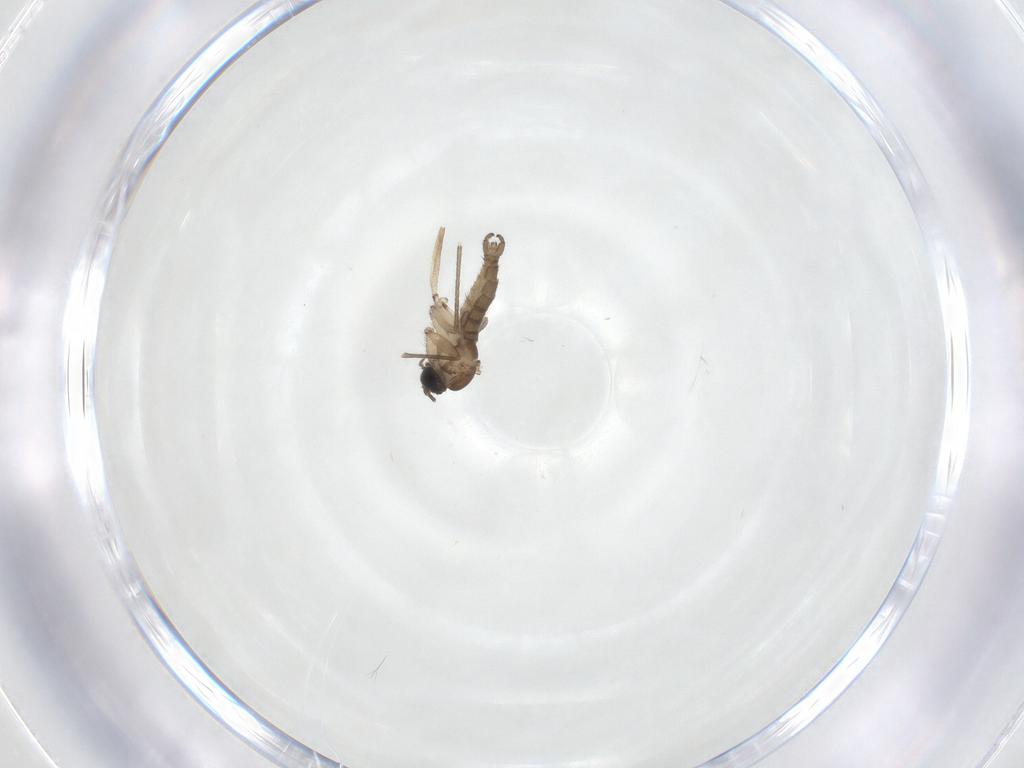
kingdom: Animalia
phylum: Arthropoda
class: Insecta
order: Diptera
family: Sciaridae
